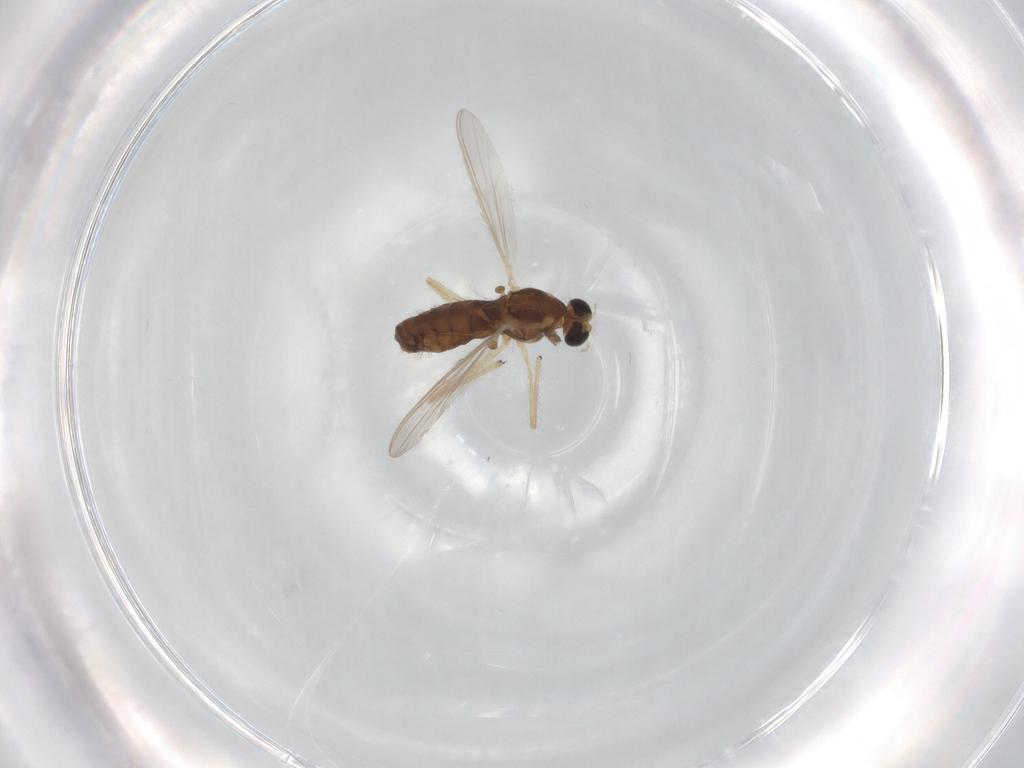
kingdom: Animalia
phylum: Arthropoda
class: Insecta
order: Diptera
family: Chironomidae
